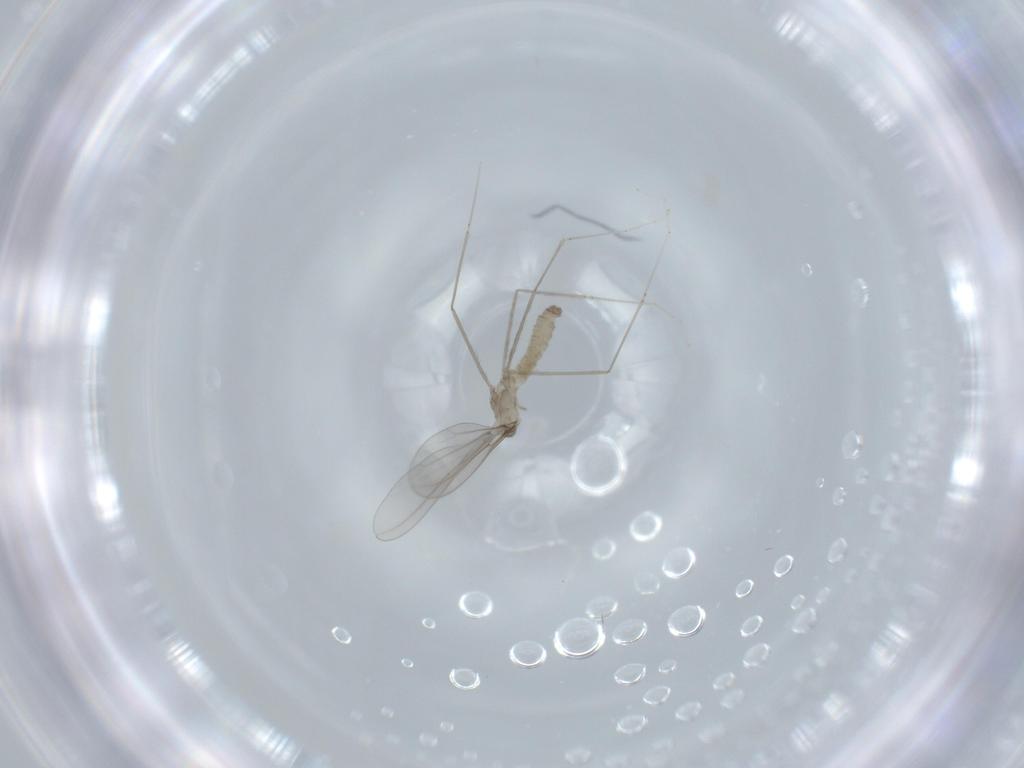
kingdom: Animalia
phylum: Arthropoda
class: Insecta
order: Diptera
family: Cecidomyiidae
